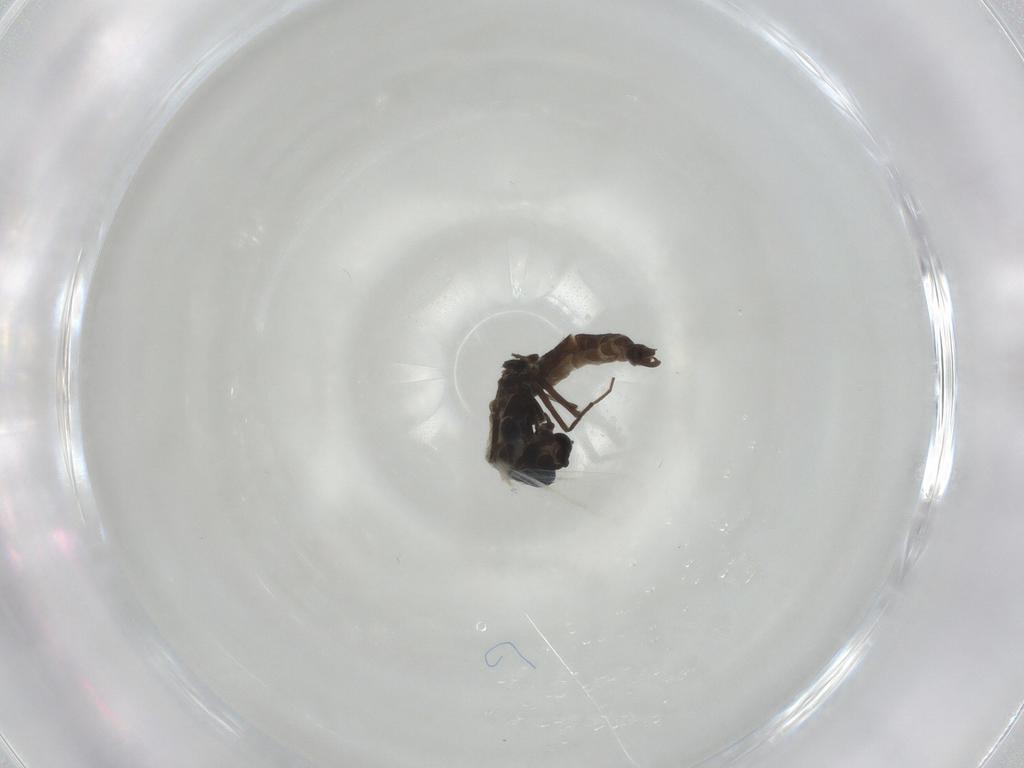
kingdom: Animalia
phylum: Arthropoda
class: Insecta
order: Diptera
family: Chironomidae
